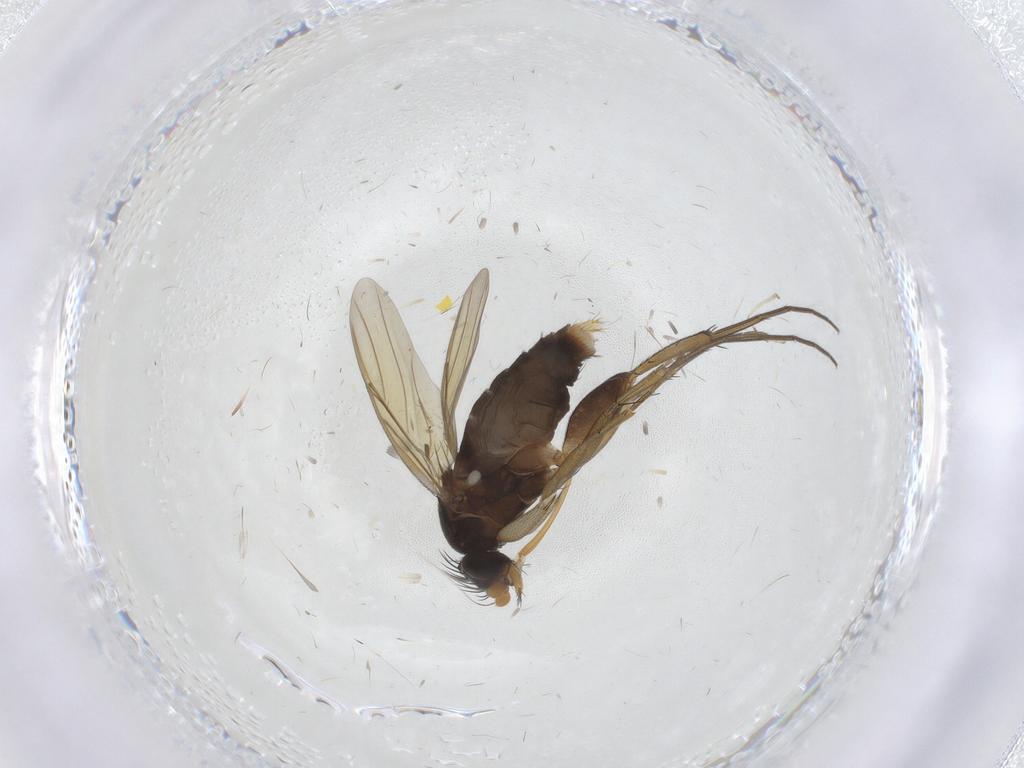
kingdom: Animalia
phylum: Arthropoda
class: Insecta
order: Diptera
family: Phoridae
